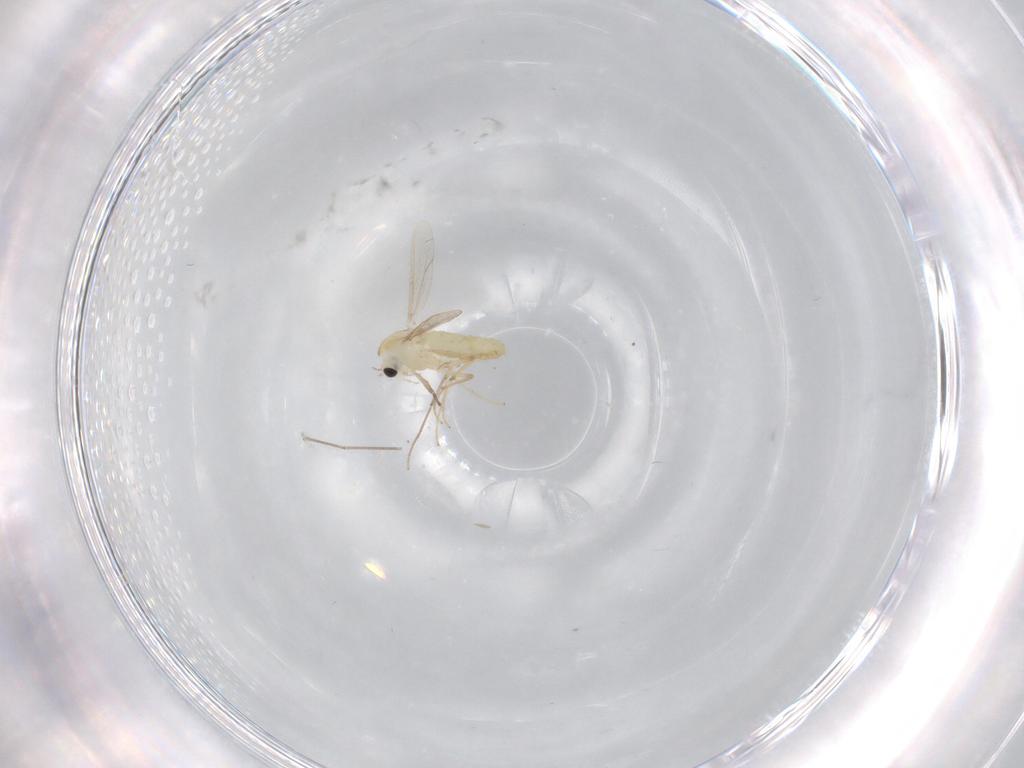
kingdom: Animalia
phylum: Arthropoda
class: Insecta
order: Diptera
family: Chironomidae
